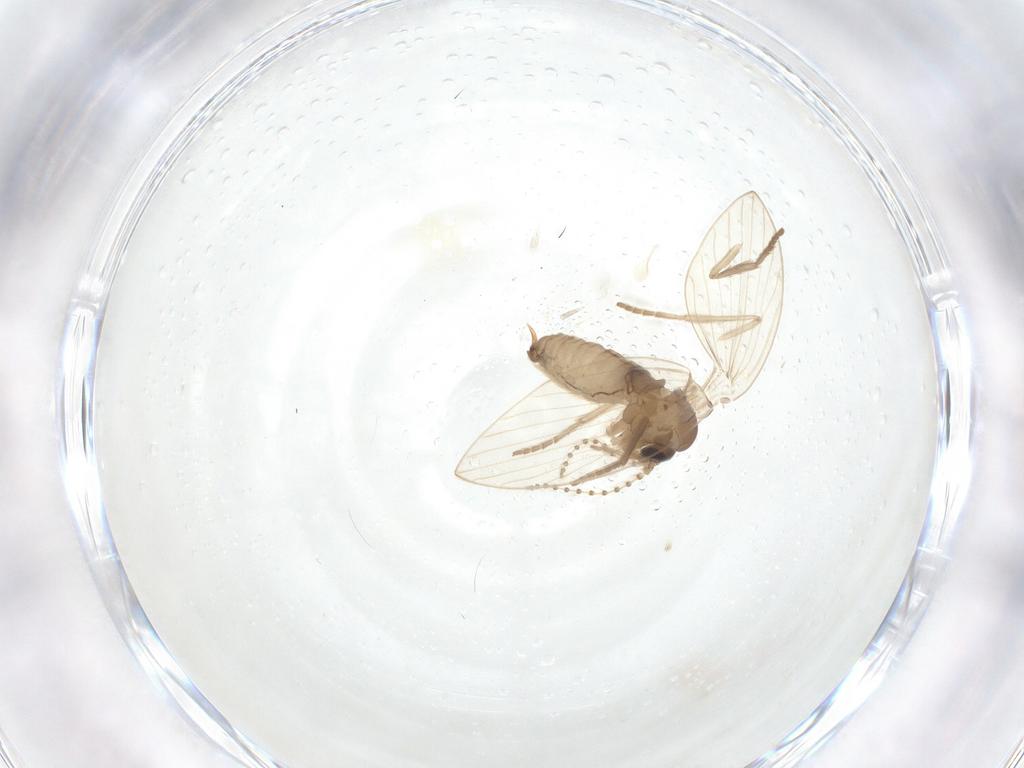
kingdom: Animalia
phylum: Arthropoda
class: Insecta
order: Diptera
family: Psychodidae
